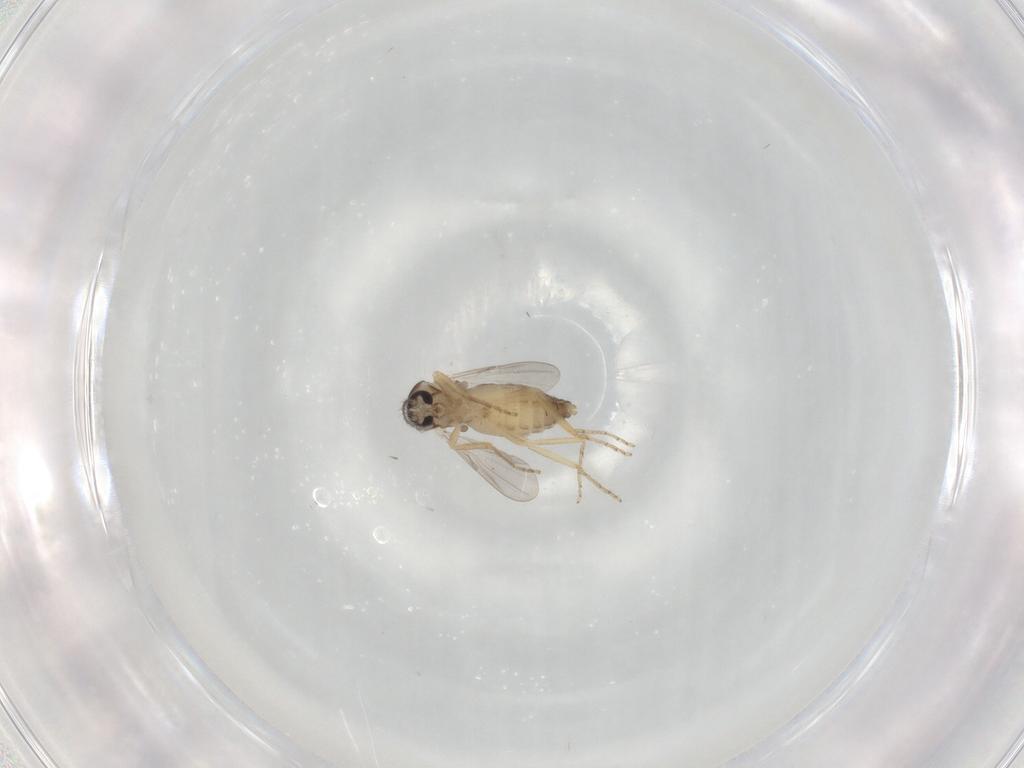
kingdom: Animalia
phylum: Arthropoda
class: Insecta
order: Diptera
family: Ceratopogonidae
